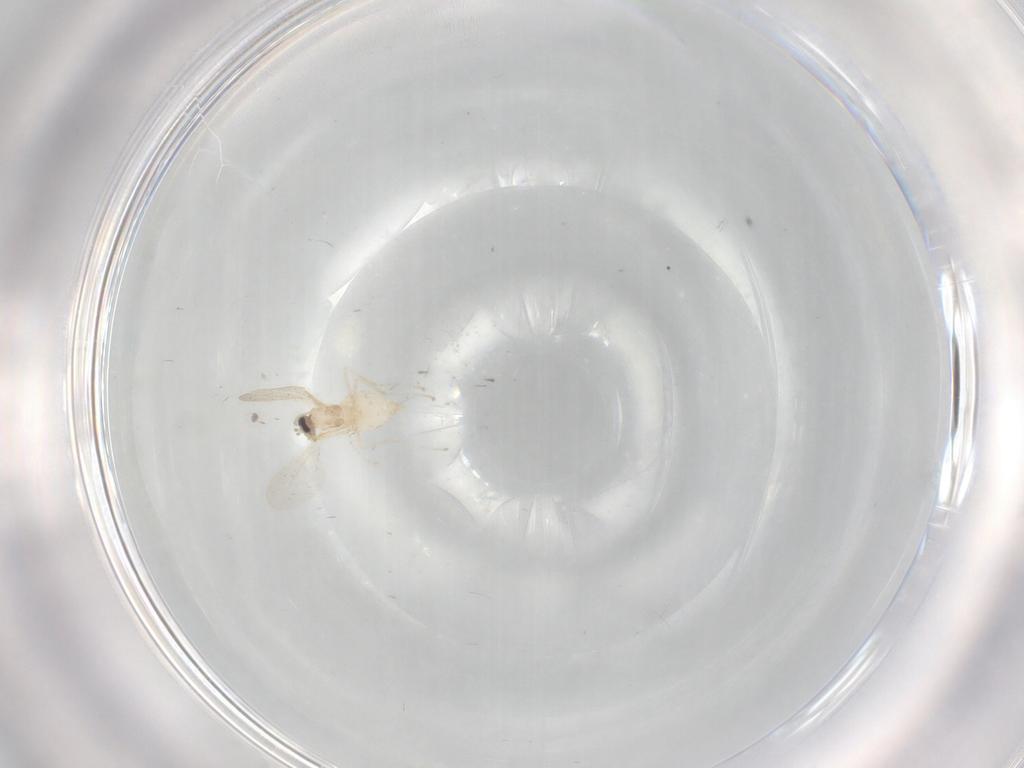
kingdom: Animalia
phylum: Arthropoda
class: Insecta
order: Diptera
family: Cecidomyiidae
